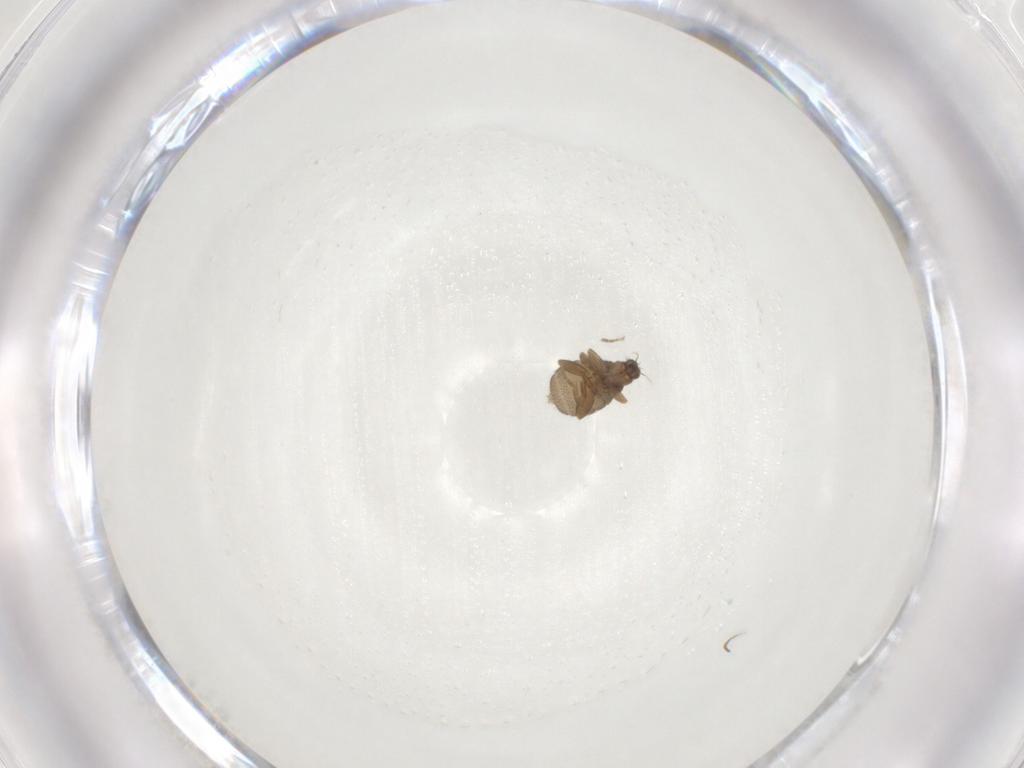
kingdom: Animalia
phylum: Arthropoda
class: Insecta
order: Diptera
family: Phoridae
